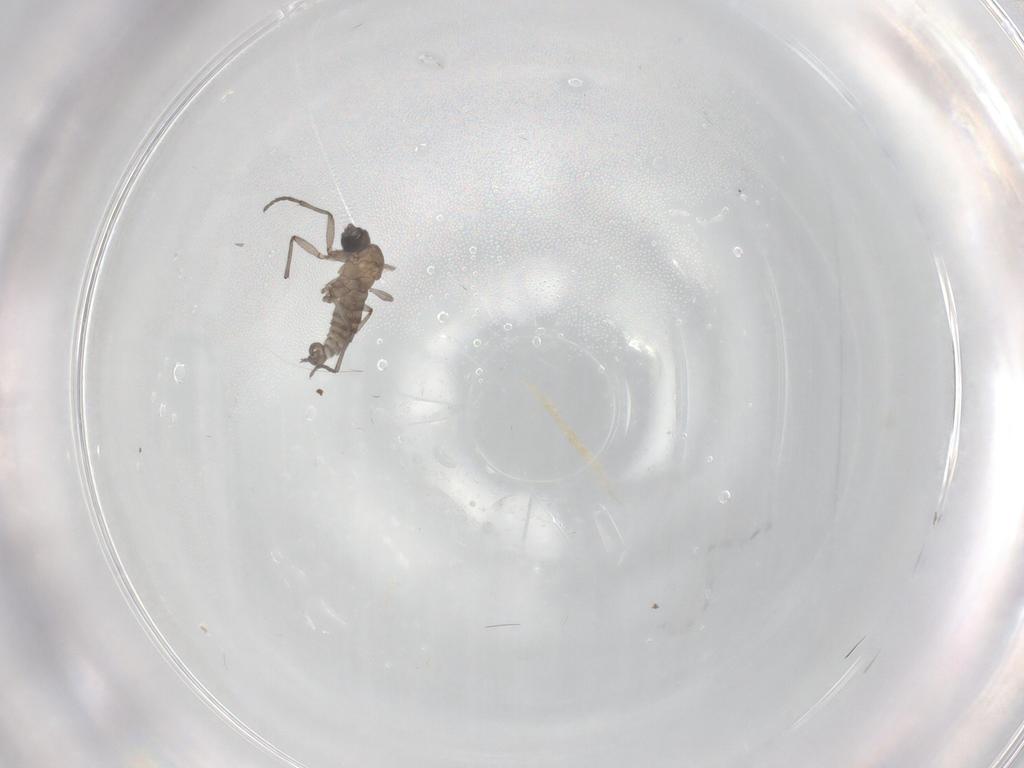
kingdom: Animalia
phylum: Arthropoda
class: Insecta
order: Diptera
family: Sciaridae
